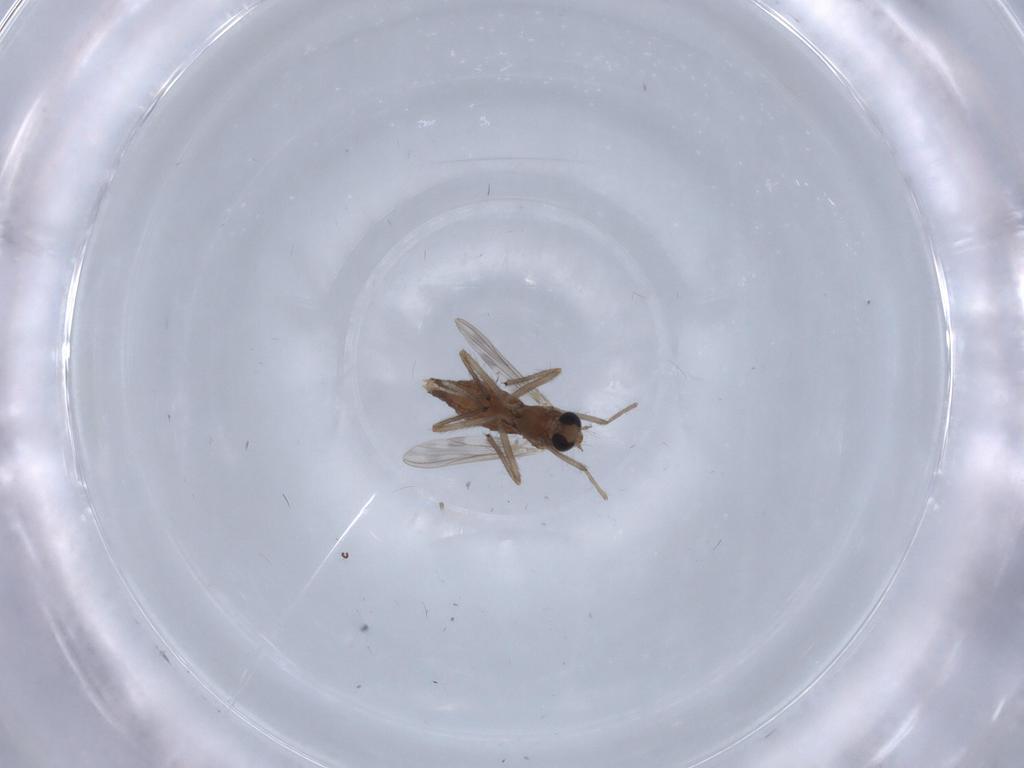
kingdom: Animalia
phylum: Arthropoda
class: Insecta
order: Diptera
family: Chironomidae
